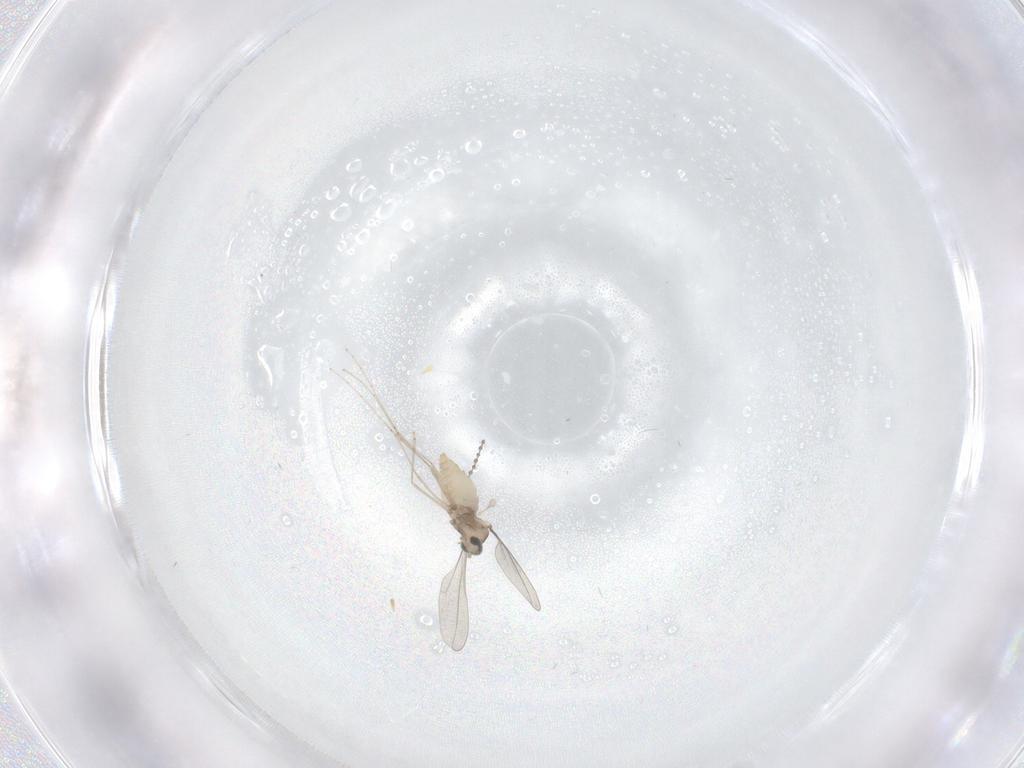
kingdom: Animalia
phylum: Arthropoda
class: Insecta
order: Diptera
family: Cecidomyiidae
